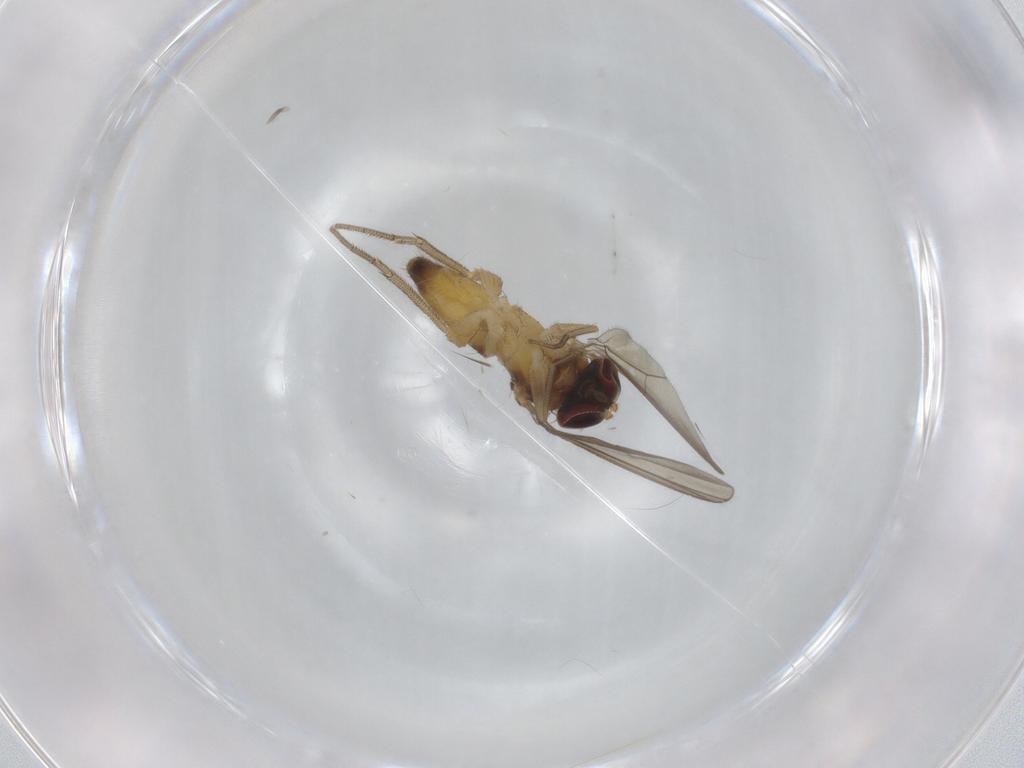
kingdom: Animalia
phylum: Arthropoda
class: Insecta
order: Diptera
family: Dolichopodidae
